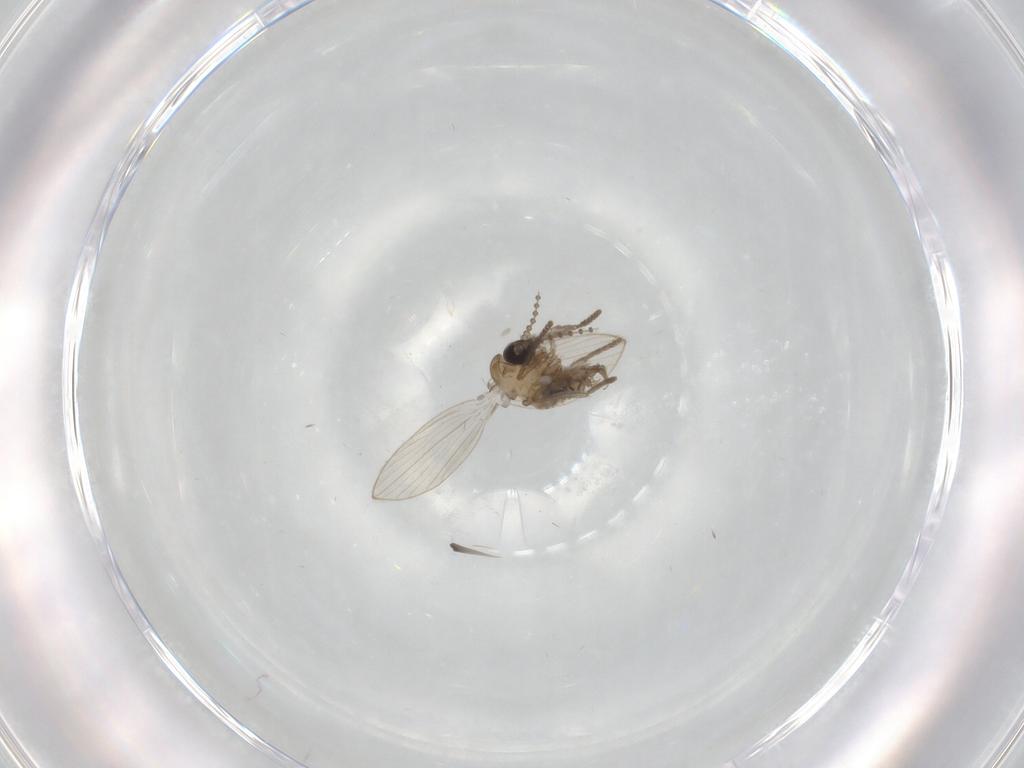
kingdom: Animalia
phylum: Arthropoda
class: Insecta
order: Diptera
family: Psychodidae
